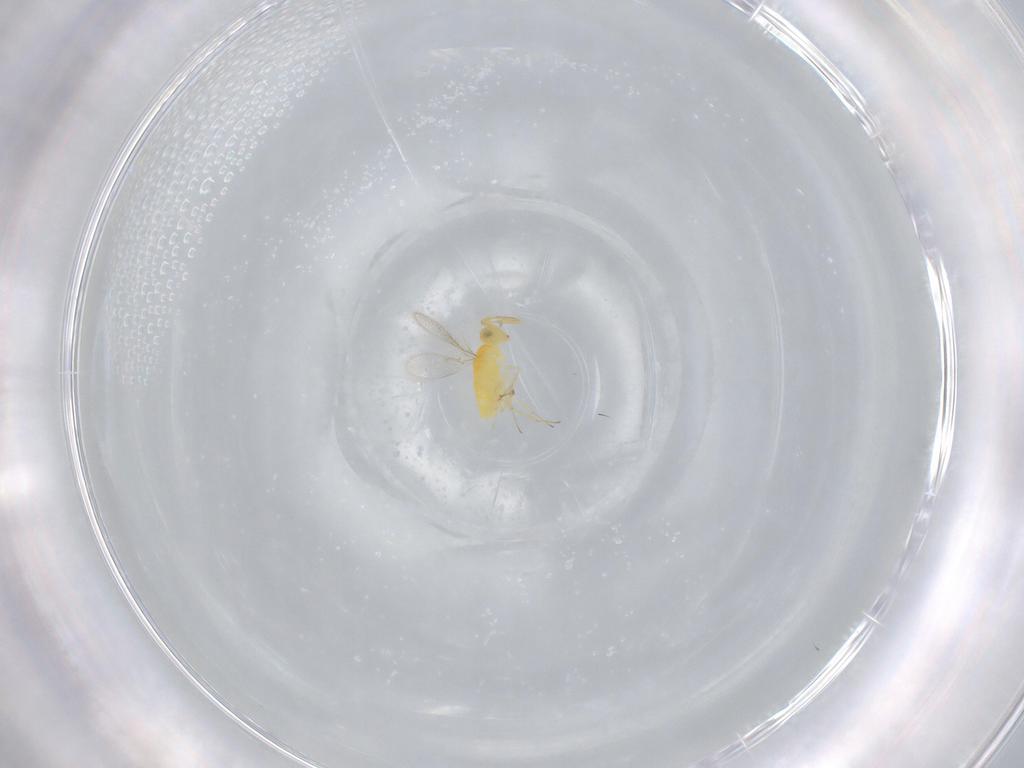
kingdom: Animalia
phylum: Arthropoda
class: Insecta
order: Hymenoptera
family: Aphelinidae
